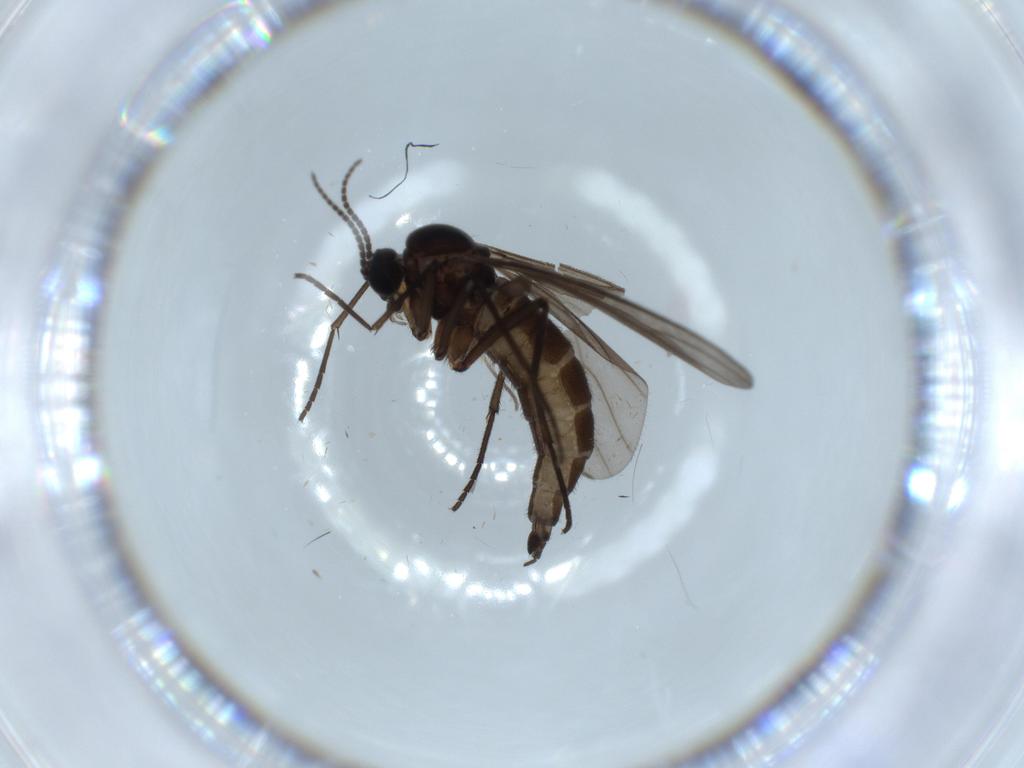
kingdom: Animalia
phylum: Arthropoda
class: Insecta
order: Diptera
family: Sciaridae
